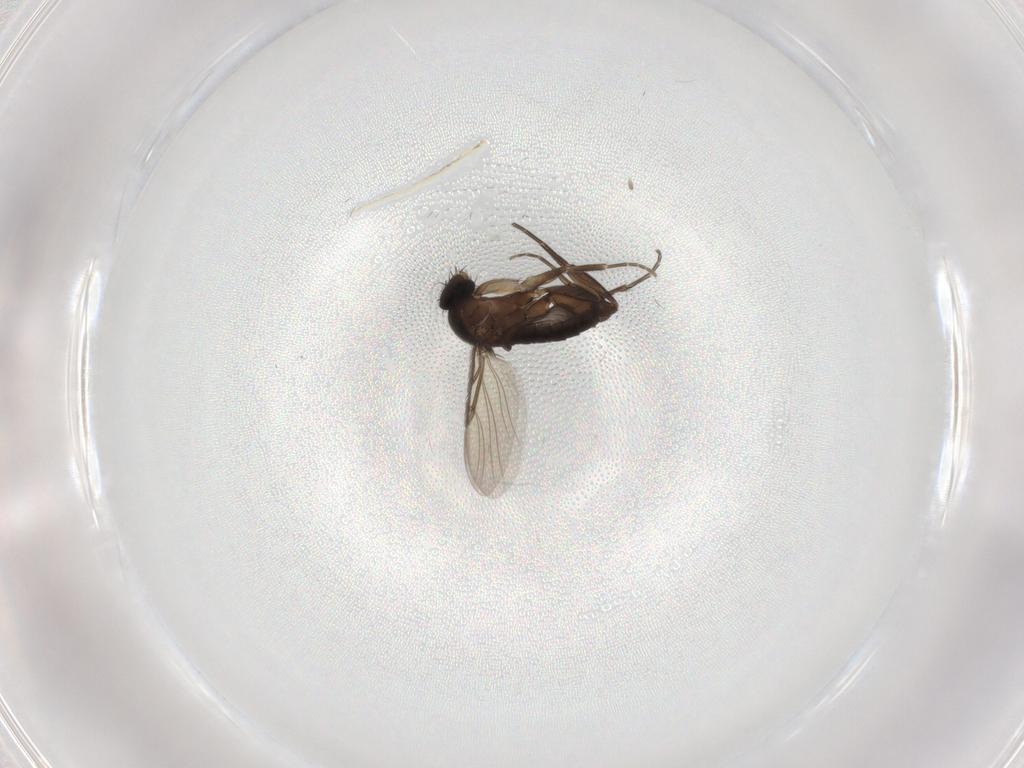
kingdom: Animalia
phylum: Arthropoda
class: Insecta
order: Diptera
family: Phoridae
